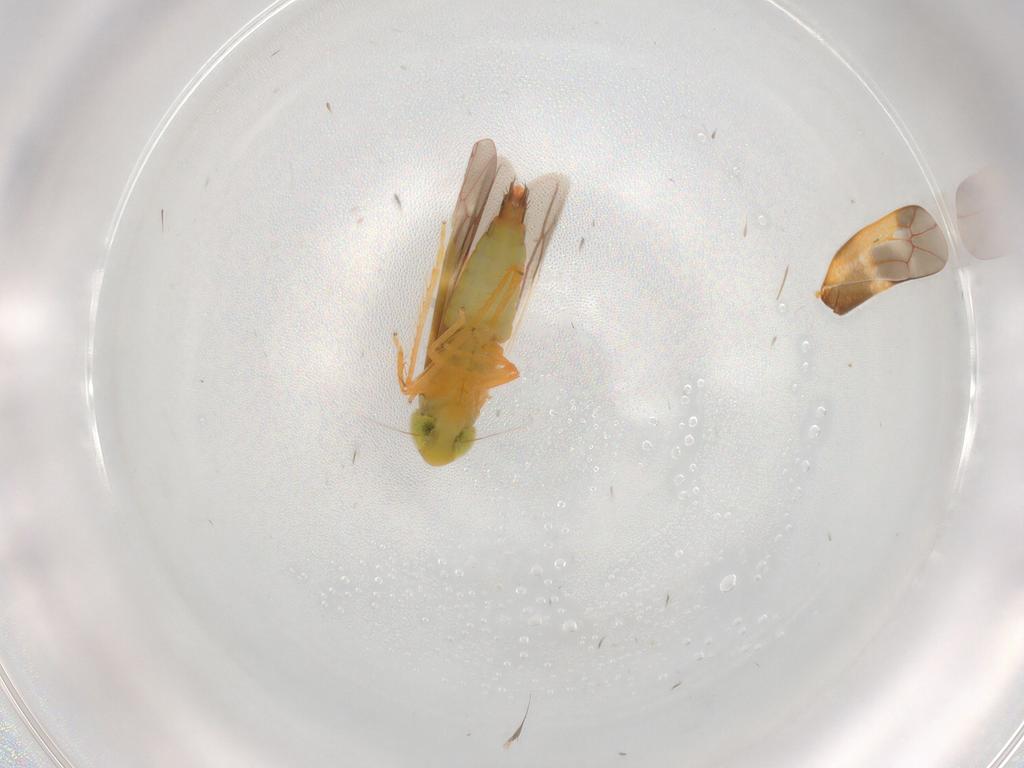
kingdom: Animalia
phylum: Arthropoda
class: Insecta
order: Hemiptera
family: Cicadellidae
